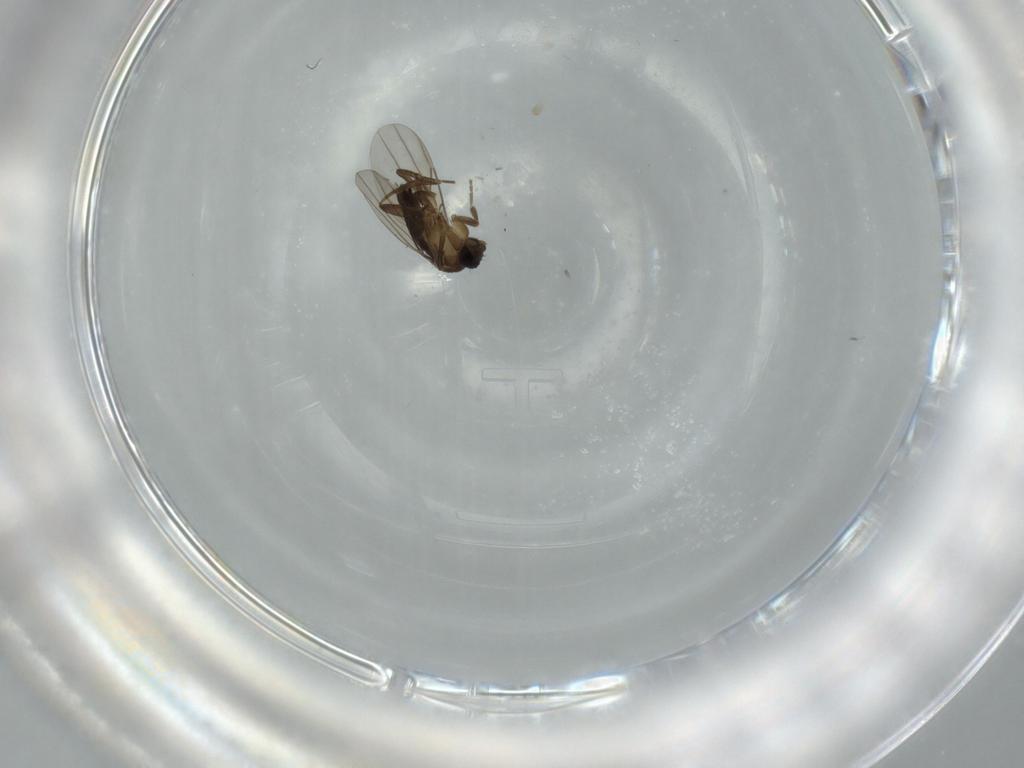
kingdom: Animalia
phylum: Arthropoda
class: Insecta
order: Diptera
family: Phoridae
